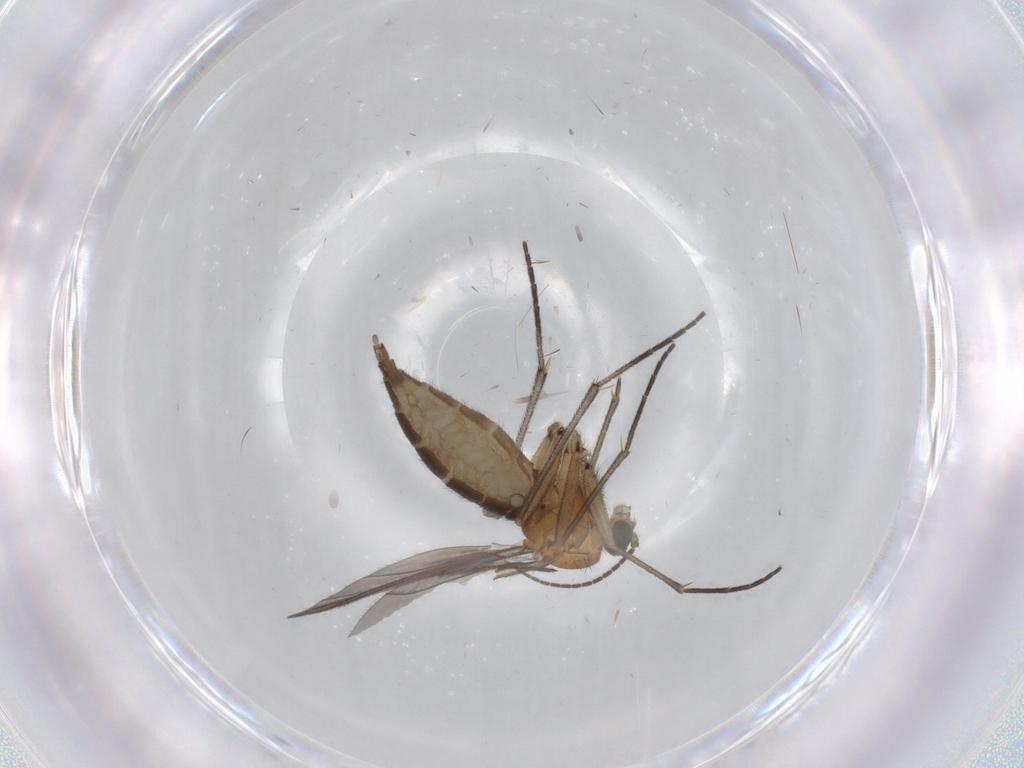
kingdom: Animalia
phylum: Arthropoda
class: Insecta
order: Diptera
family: Sciaridae
